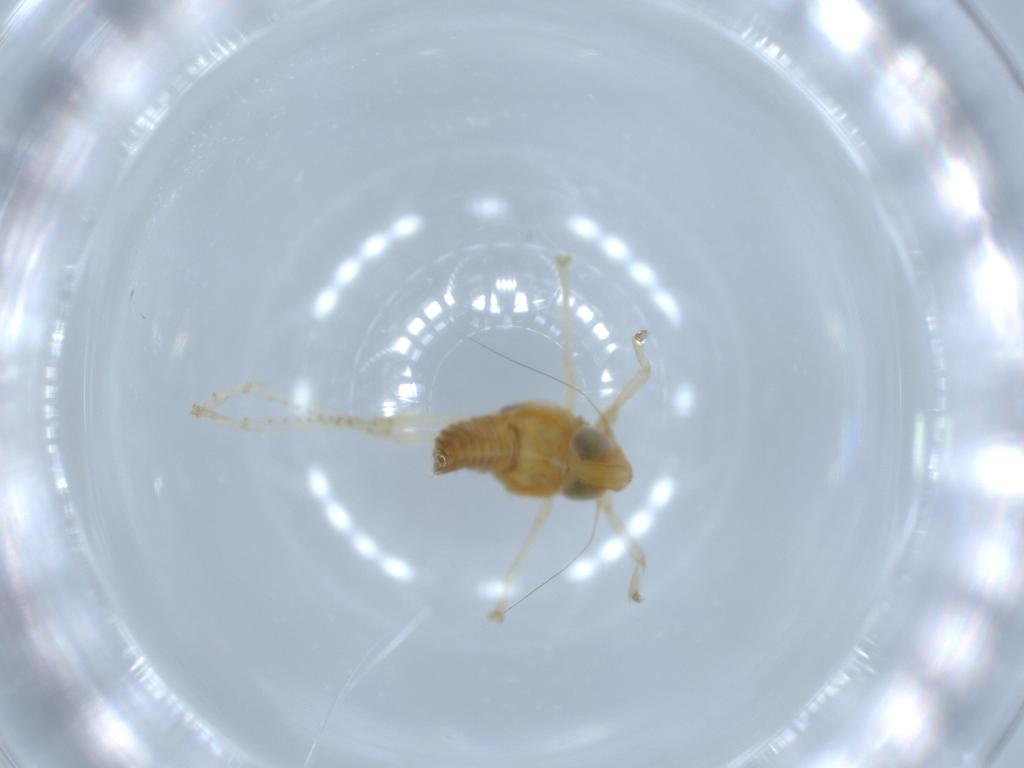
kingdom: Animalia
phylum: Arthropoda
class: Insecta
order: Hemiptera
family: Cicadellidae
